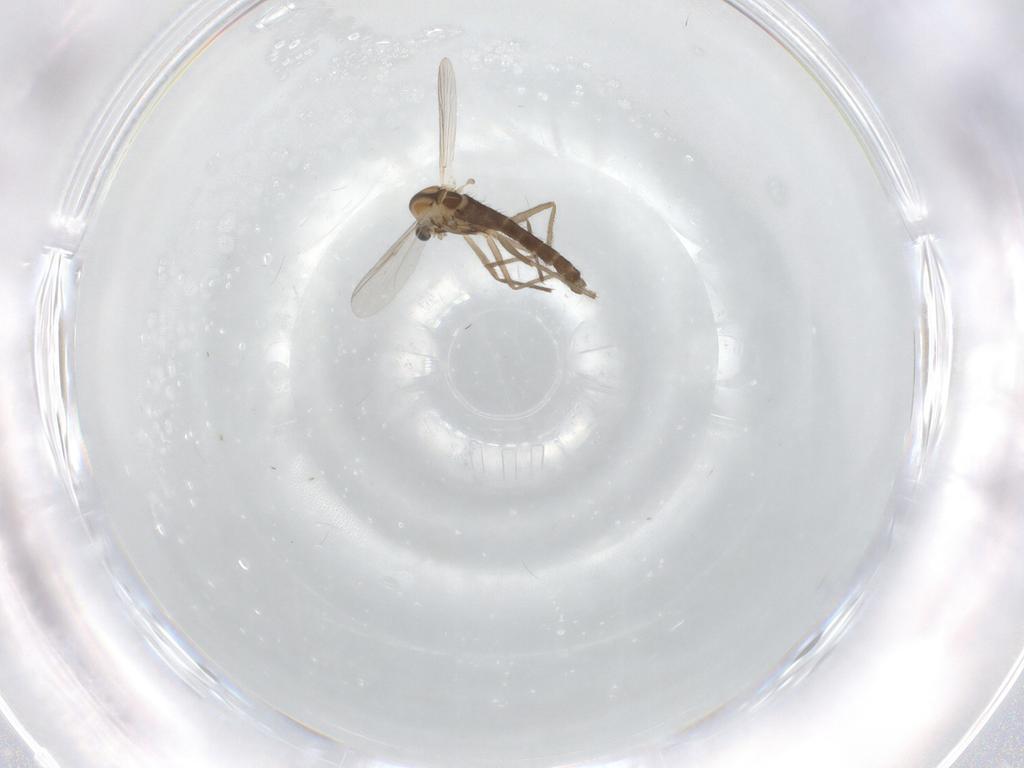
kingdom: Animalia
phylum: Arthropoda
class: Insecta
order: Diptera
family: Chironomidae
